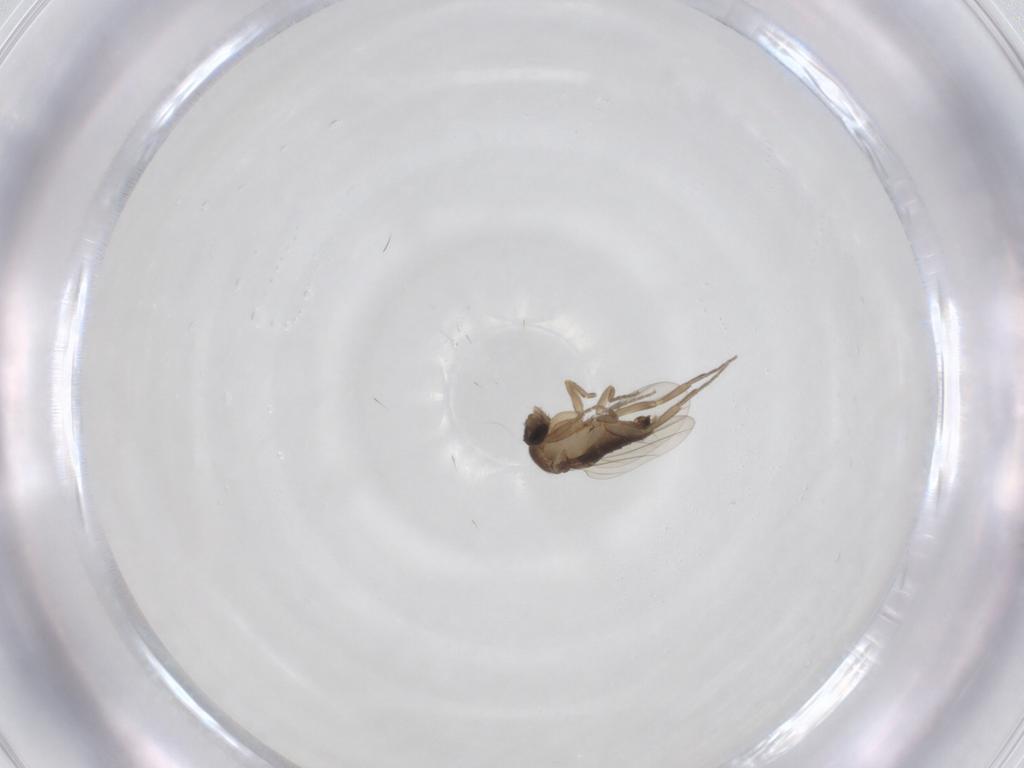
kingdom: Animalia
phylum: Arthropoda
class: Insecta
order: Diptera
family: Phoridae
